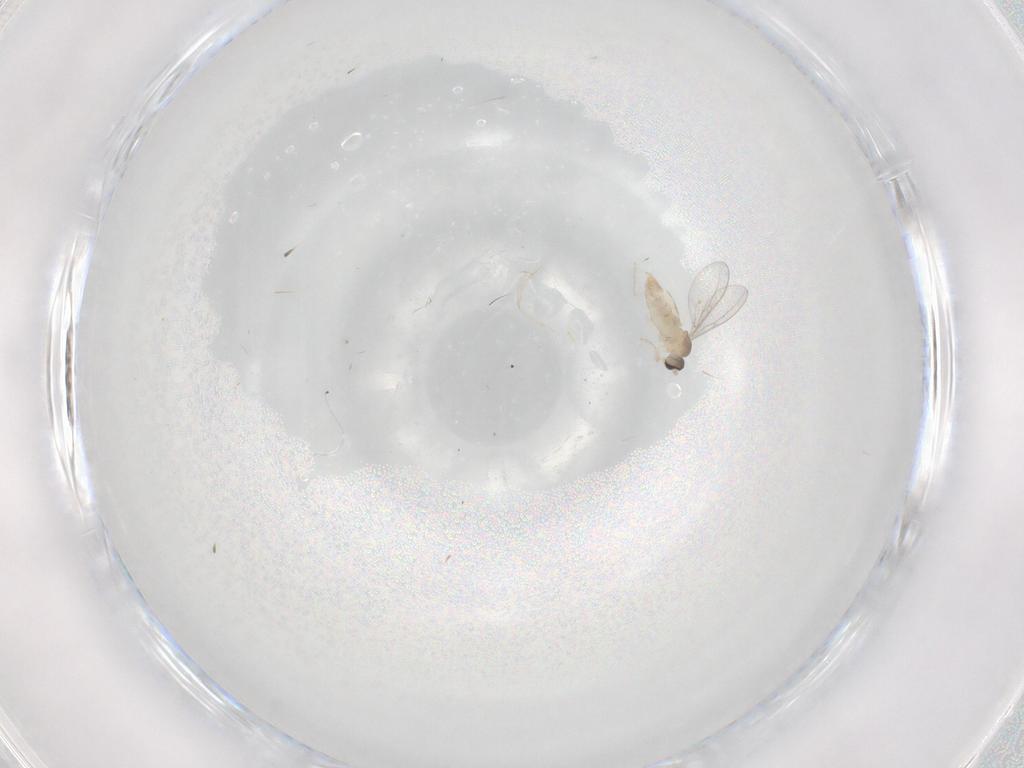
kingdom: Animalia
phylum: Arthropoda
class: Insecta
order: Diptera
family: Cecidomyiidae
